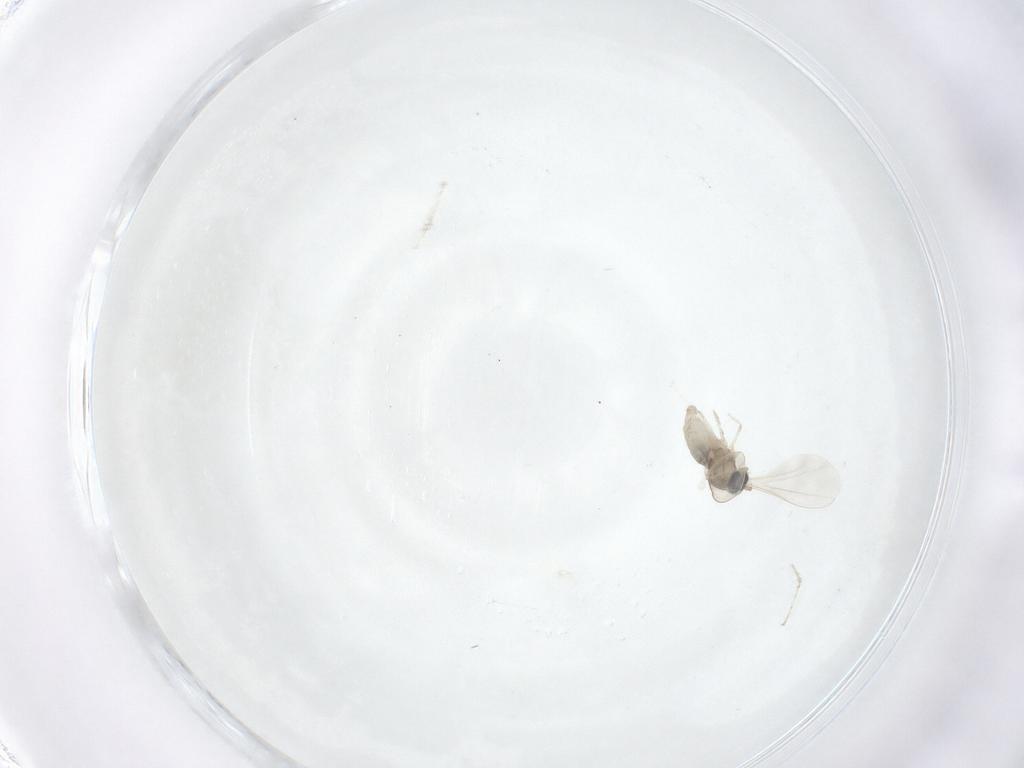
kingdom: Animalia
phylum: Arthropoda
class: Insecta
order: Diptera
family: Cecidomyiidae
